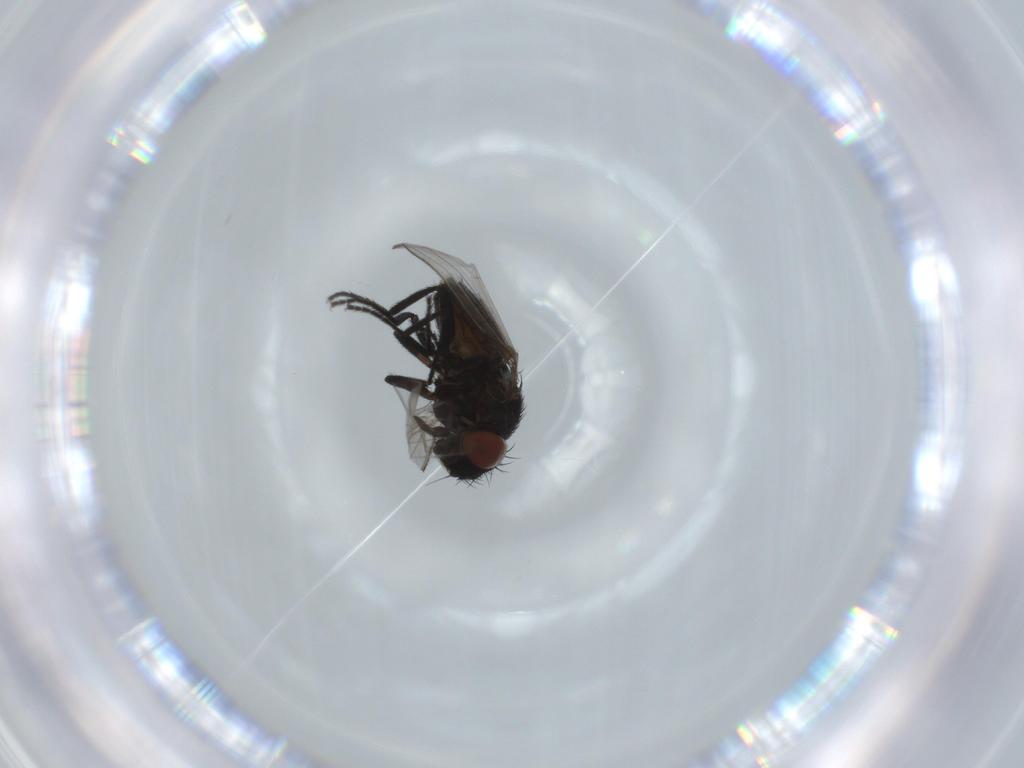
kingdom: Animalia
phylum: Arthropoda
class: Insecta
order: Diptera
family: Milichiidae
